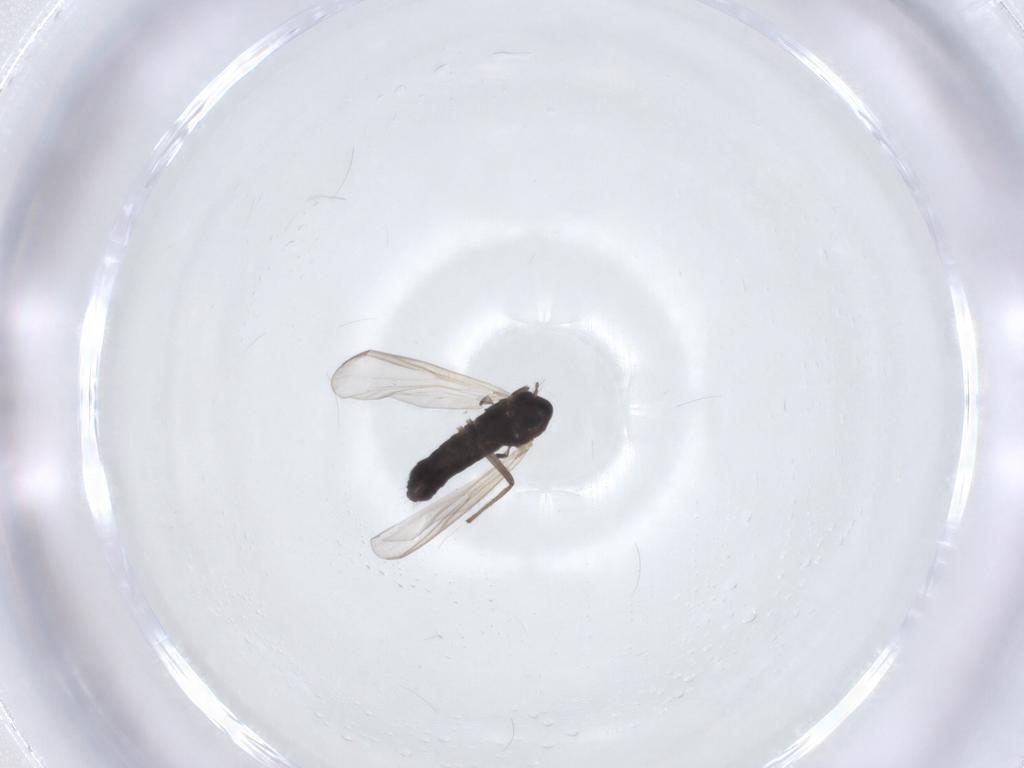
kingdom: Animalia
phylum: Arthropoda
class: Insecta
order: Diptera
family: Chironomidae
